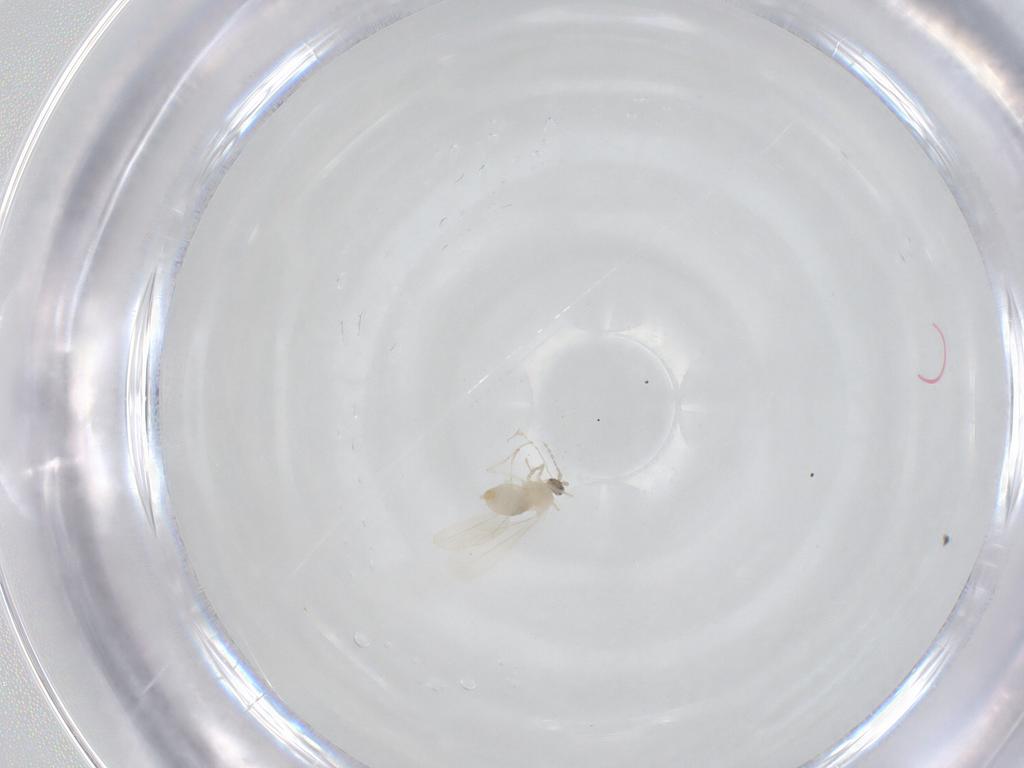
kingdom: Animalia
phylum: Arthropoda
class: Insecta
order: Diptera
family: Cecidomyiidae
